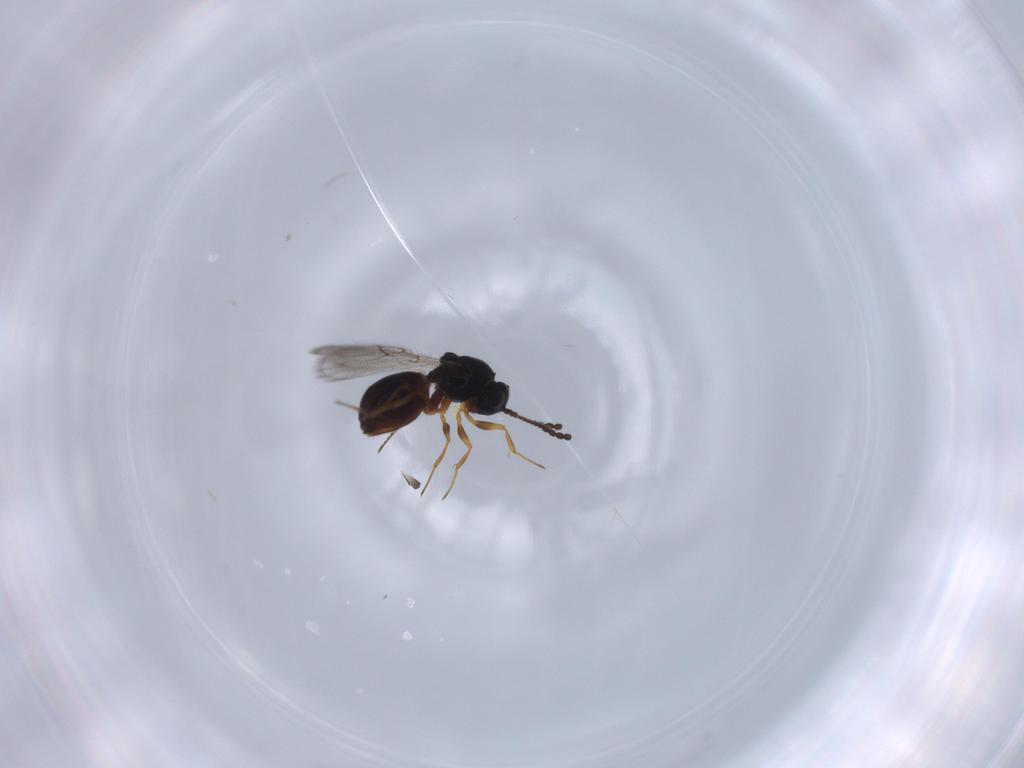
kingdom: Animalia
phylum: Arthropoda
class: Insecta
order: Hymenoptera
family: Figitidae
